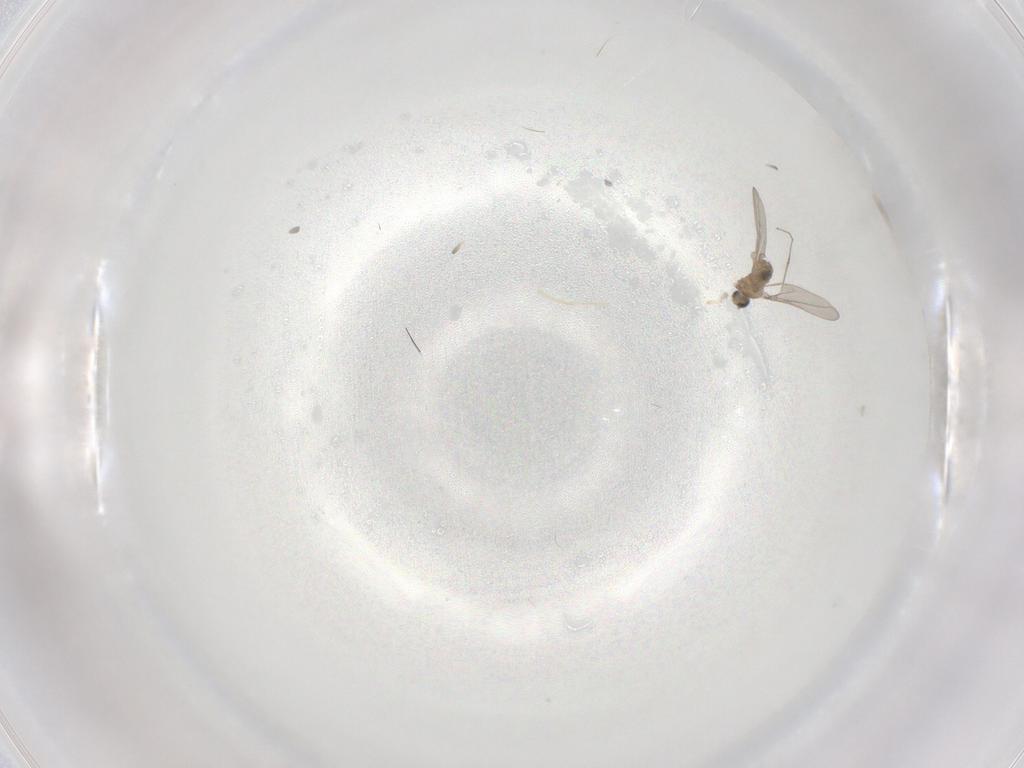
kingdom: Animalia
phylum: Arthropoda
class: Insecta
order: Diptera
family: Cecidomyiidae
